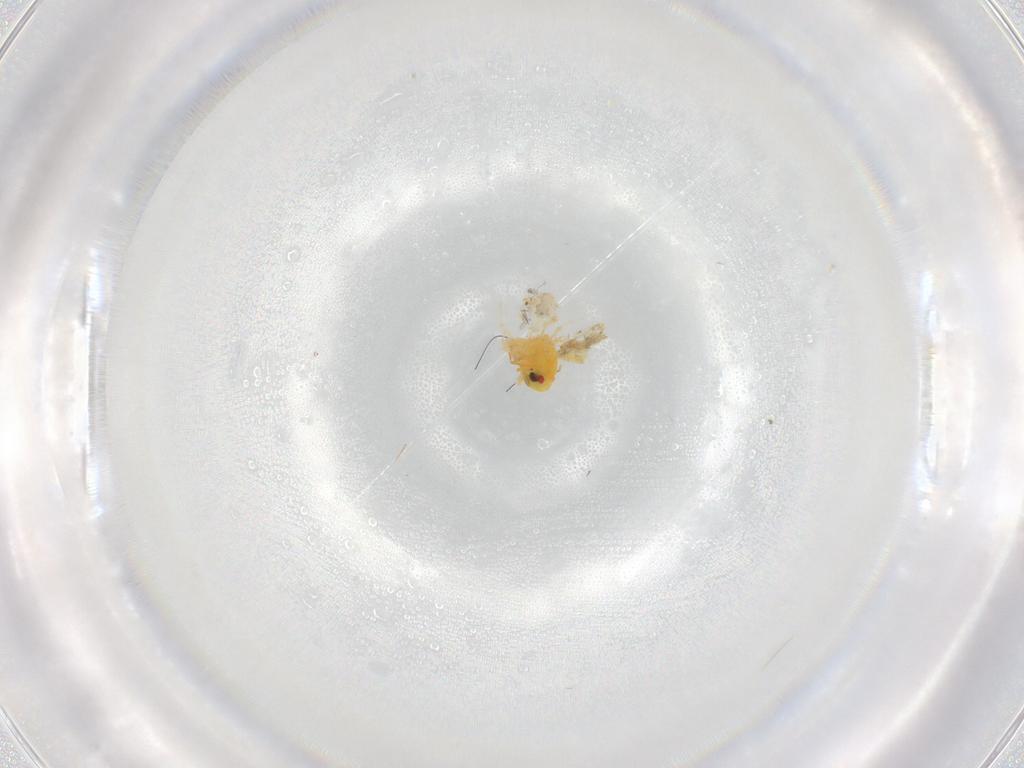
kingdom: Animalia
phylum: Arthropoda
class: Insecta
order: Hemiptera
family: Aleyrodidae
